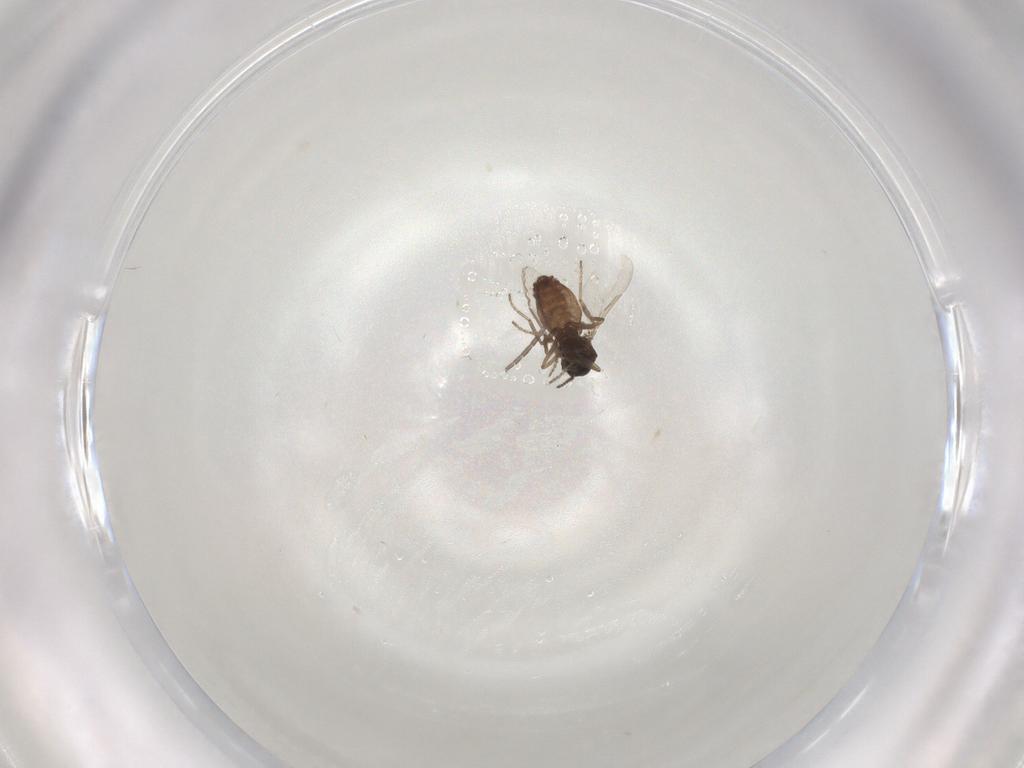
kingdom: Animalia
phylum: Arthropoda
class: Insecta
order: Diptera
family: Ceratopogonidae
